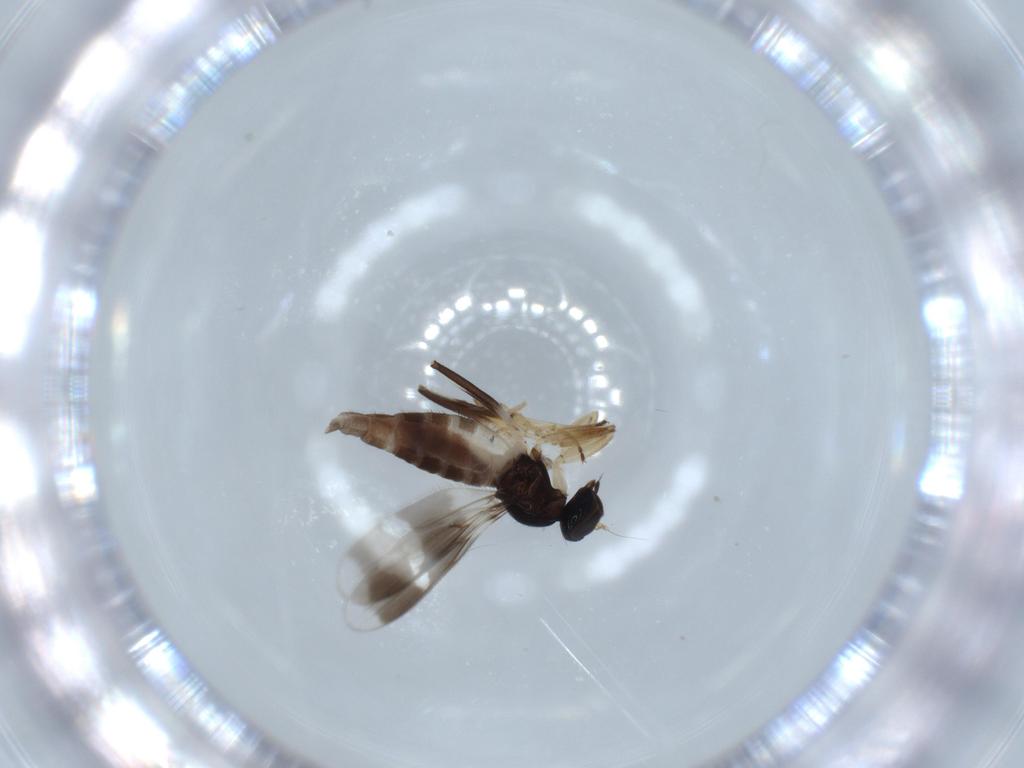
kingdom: Animalia
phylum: Arthropoda
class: Insecta
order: Diptera
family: Hybotidae
